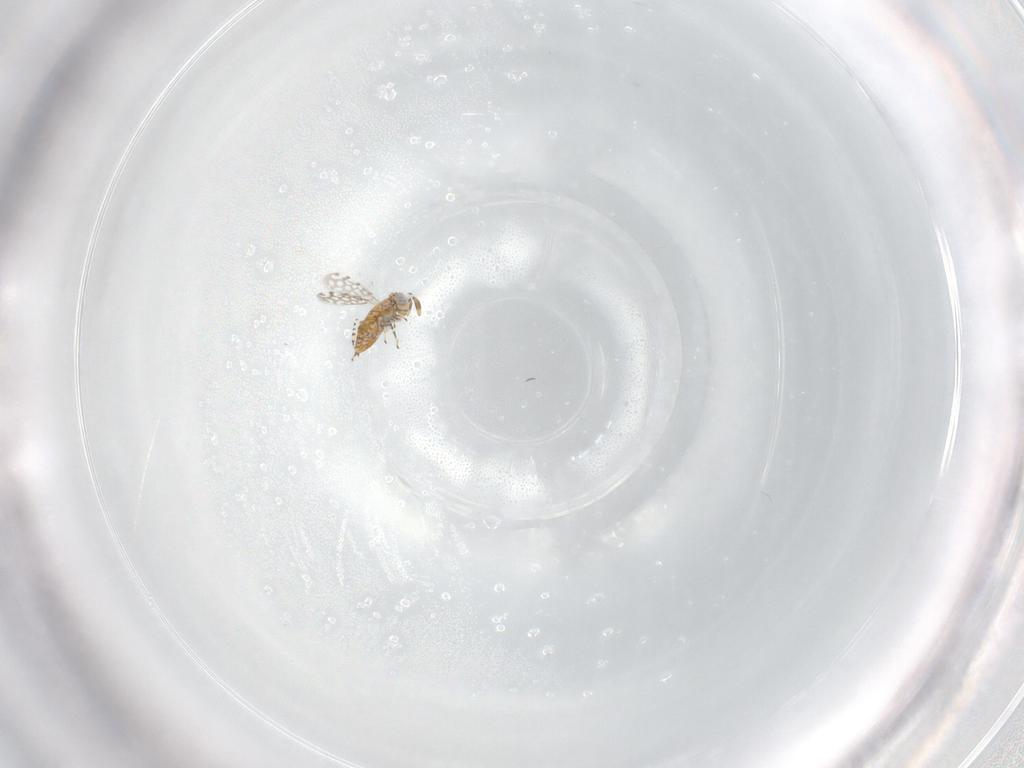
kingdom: Animalia
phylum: Arthropoda
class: Insecta
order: Hymenoptera
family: Aphelinidae
